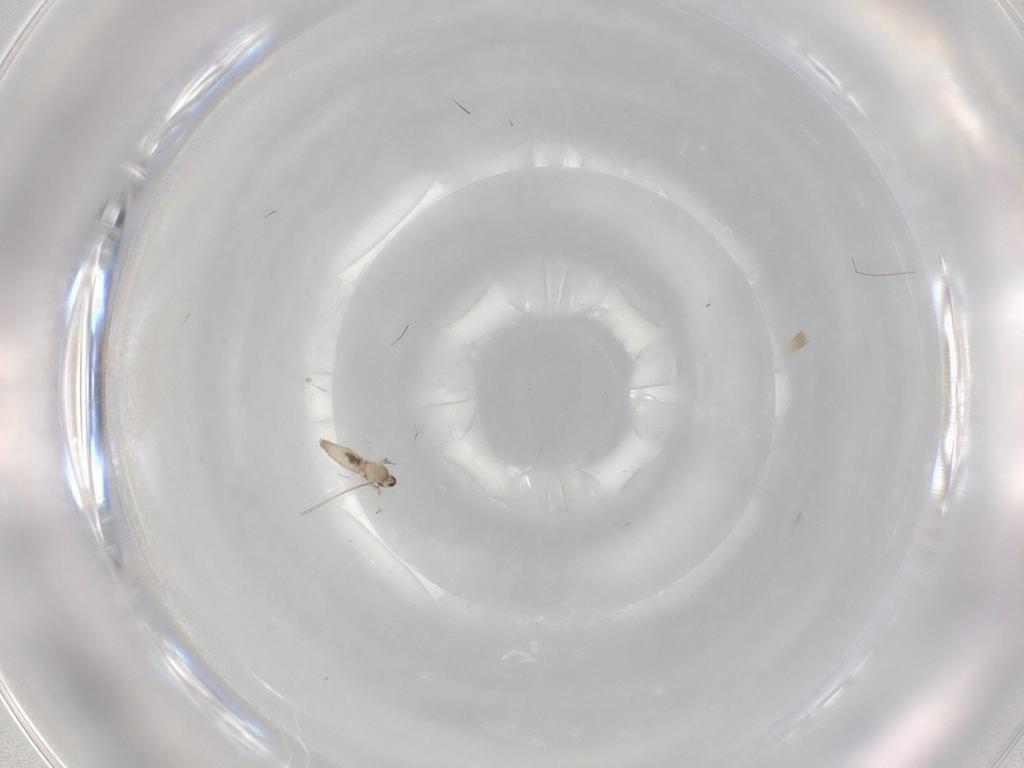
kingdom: Animalia
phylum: Arthropoda
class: Insecta
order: Diptera
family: Cecidomyiidae
